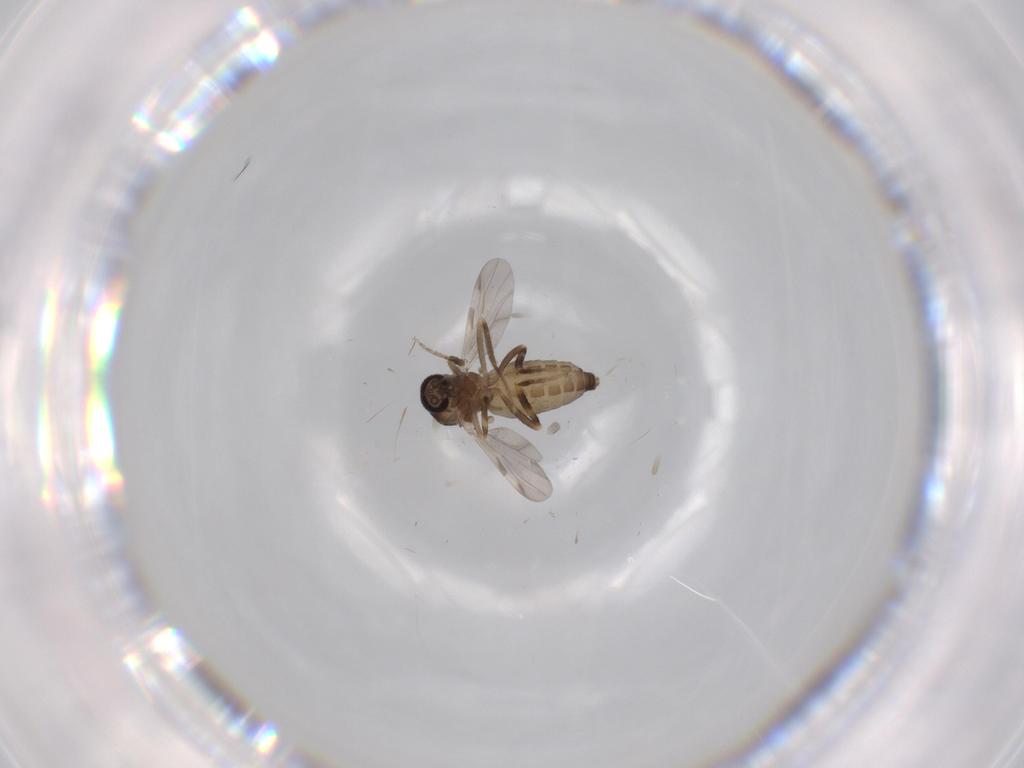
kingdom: Animalia
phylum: Arthropoda
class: Insecta
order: Diptera
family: Ceratopogonidae
